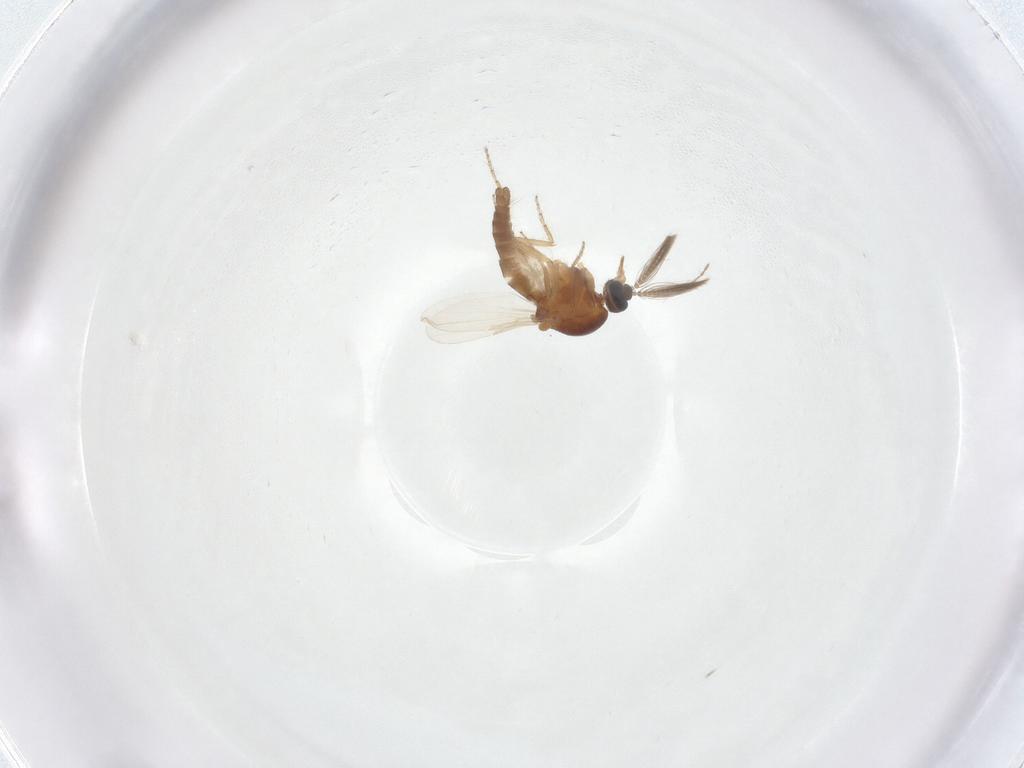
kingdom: Animalia
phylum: Arthropoda
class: Insecta
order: Diptera
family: Ceratopogonidae
